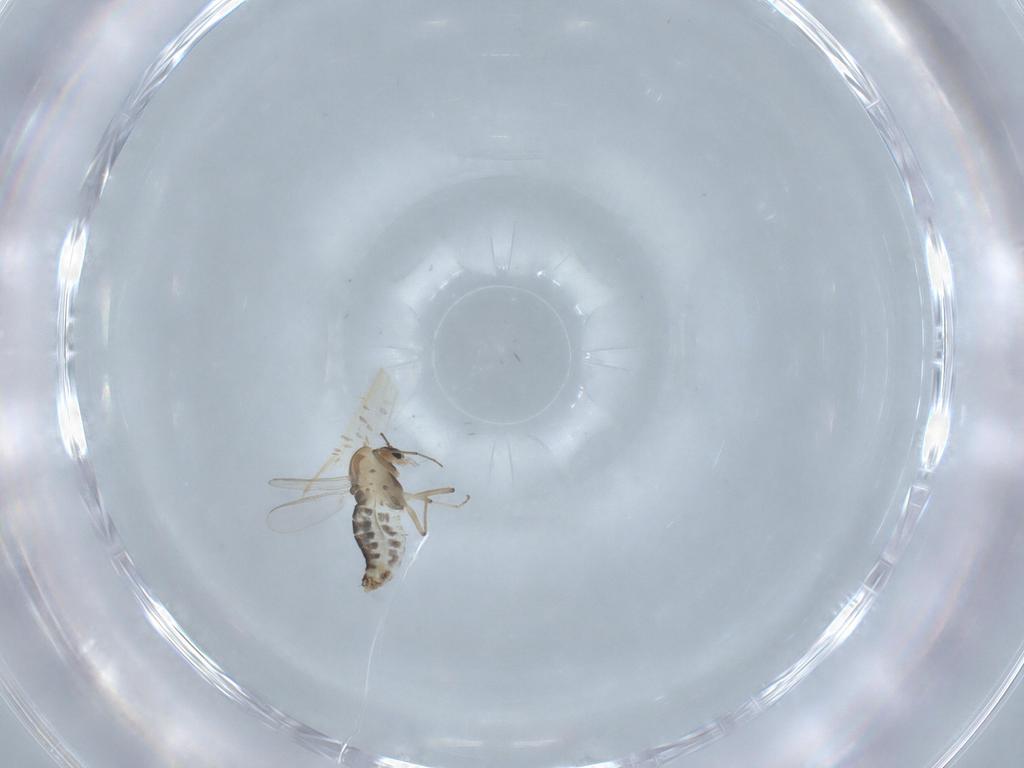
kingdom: Animalia
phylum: Arthropoda
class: Insecta
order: Diptera
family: Chironomidae
